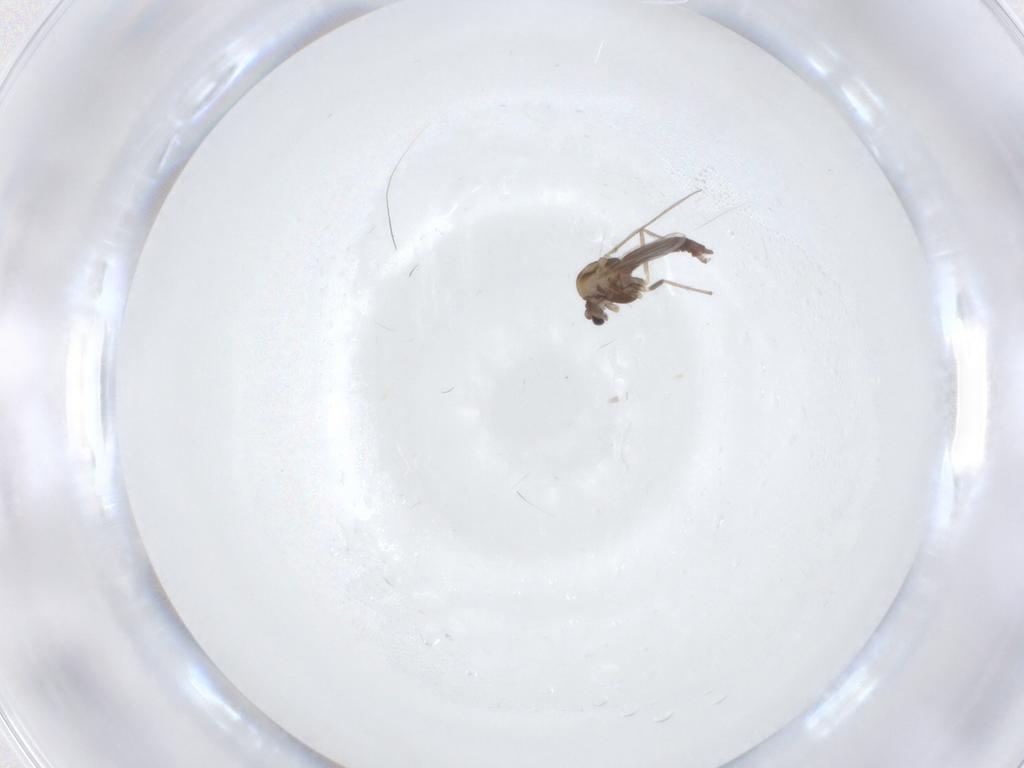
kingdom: Animalia
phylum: Arthropoda
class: Insecta
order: Diptera
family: Chironomidae
